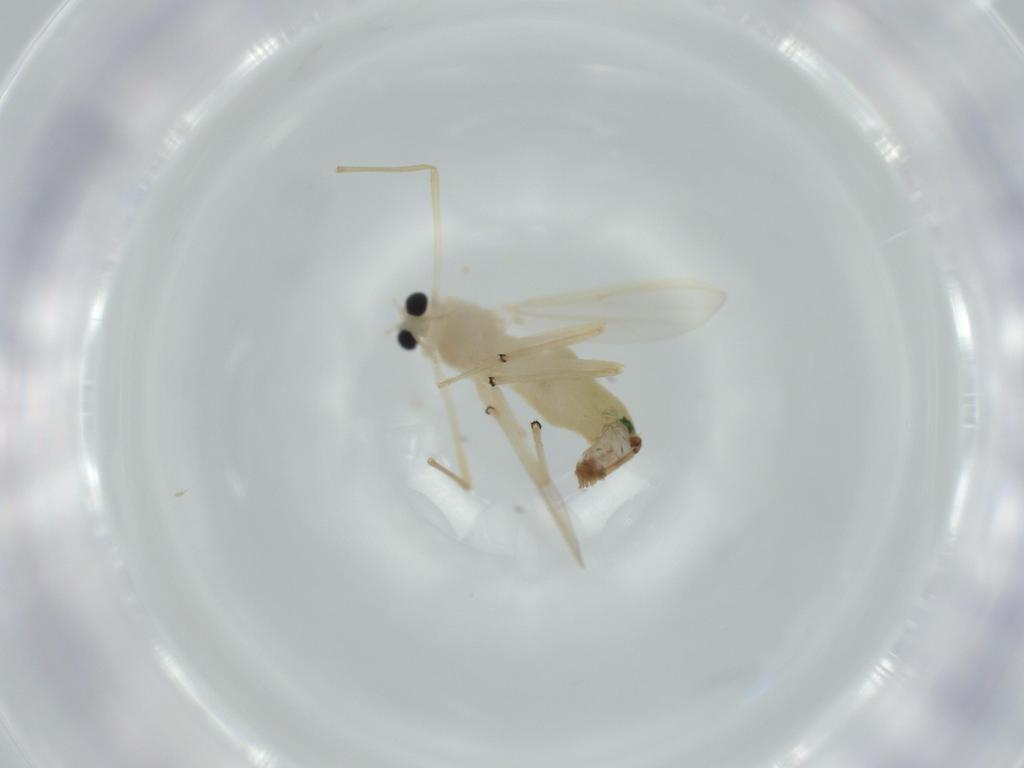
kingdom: Animalia
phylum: Arthropoda
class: Insecta
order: Diptera
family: Chironomidae
